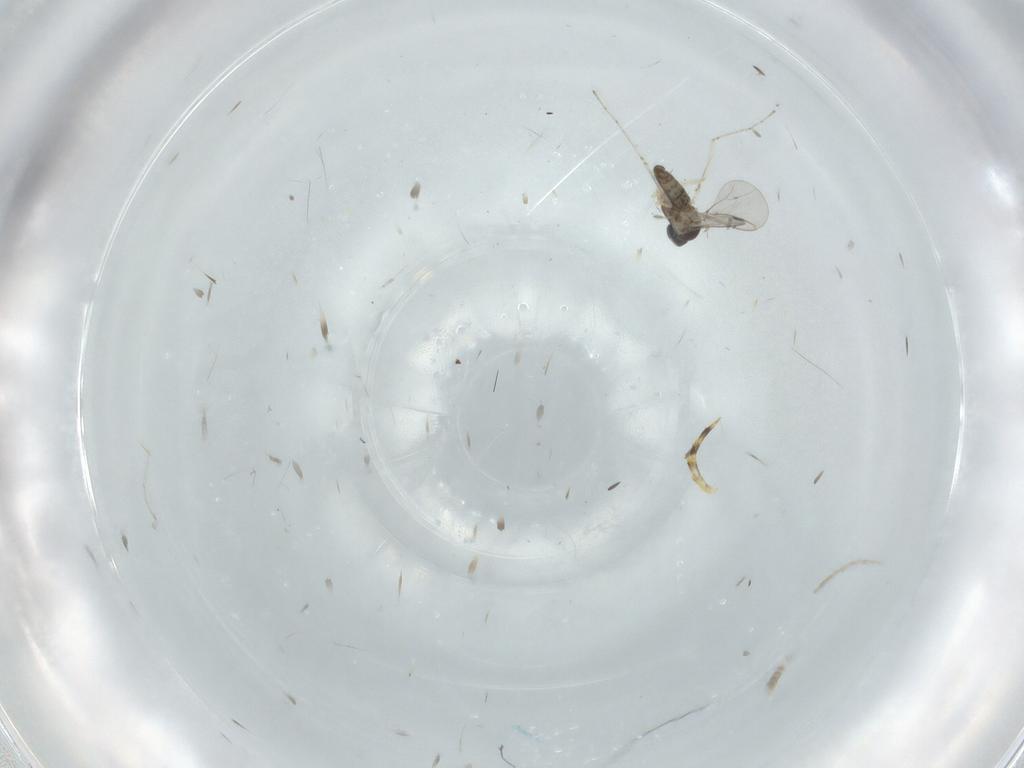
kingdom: Animalia
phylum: Arthropoda
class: Insecta
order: Diptera
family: Cecidomyiidae
